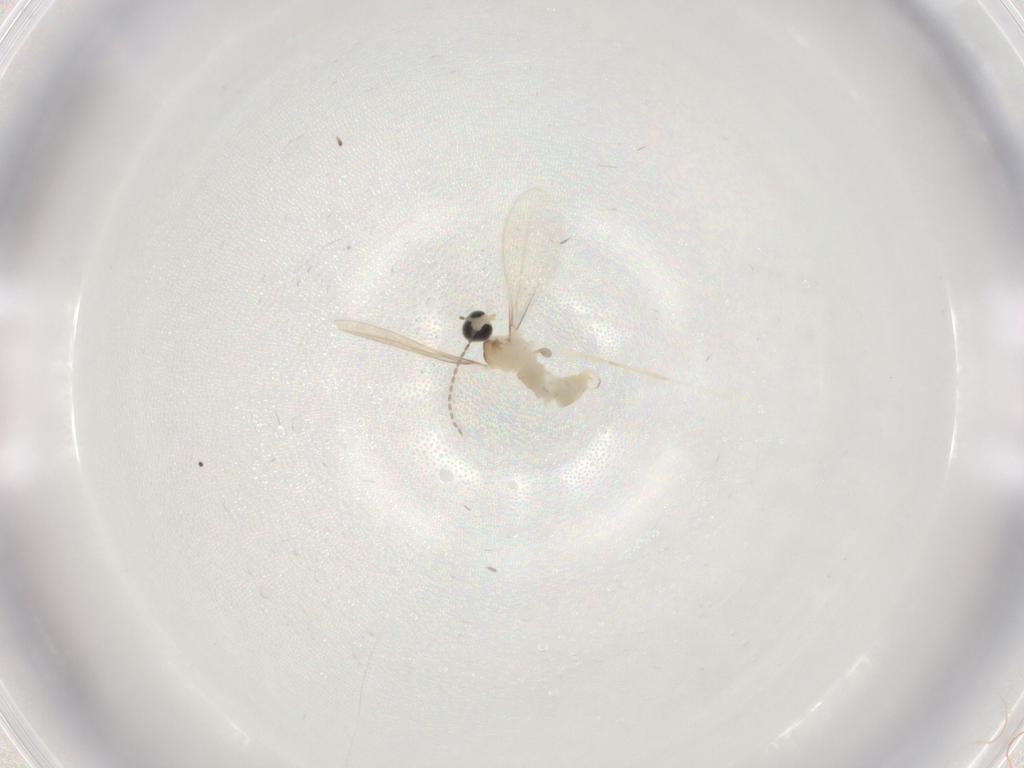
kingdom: Animalia
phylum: Arthropoda
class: Insecta
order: Diptera
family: Cecidomyiidae
